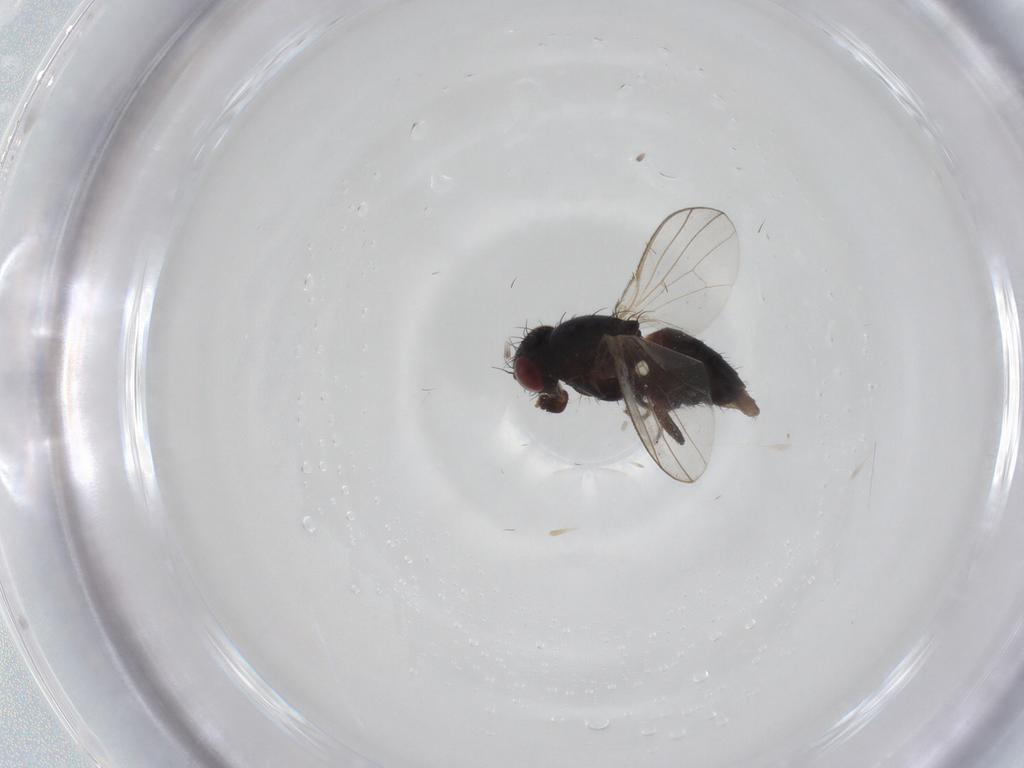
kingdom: Animalia
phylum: Arthropoda
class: Insecta
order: Diptera
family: Carnidae
